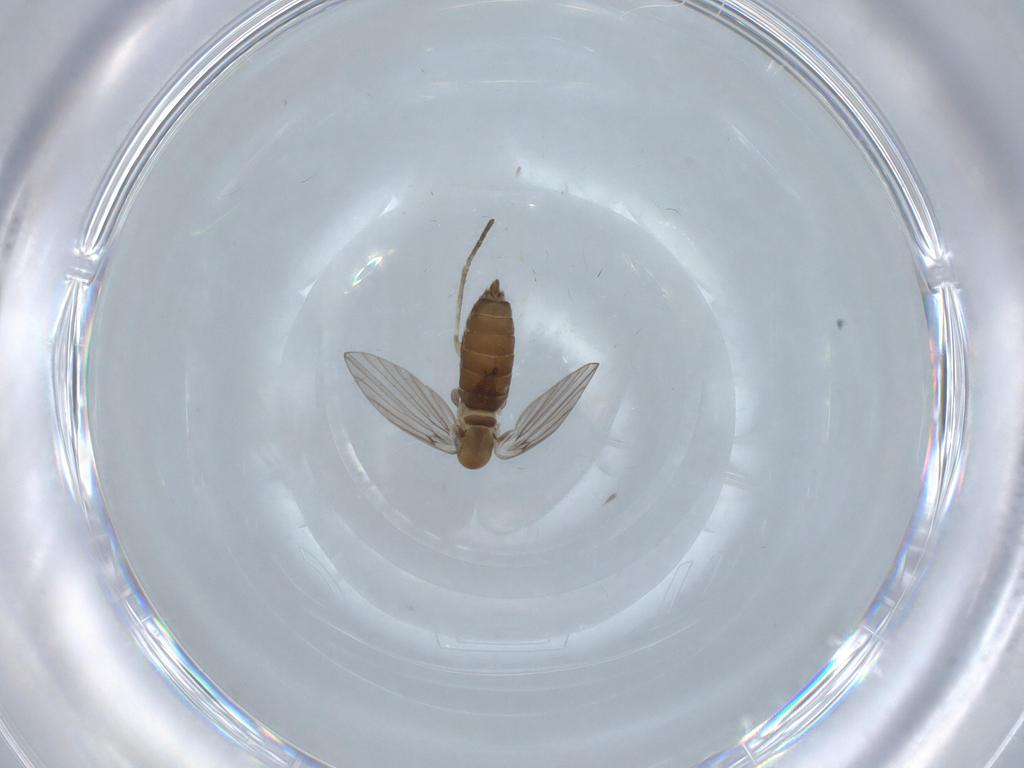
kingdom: Animalia
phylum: Arthropoda
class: Insecta
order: Diptera
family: Psychodidae
